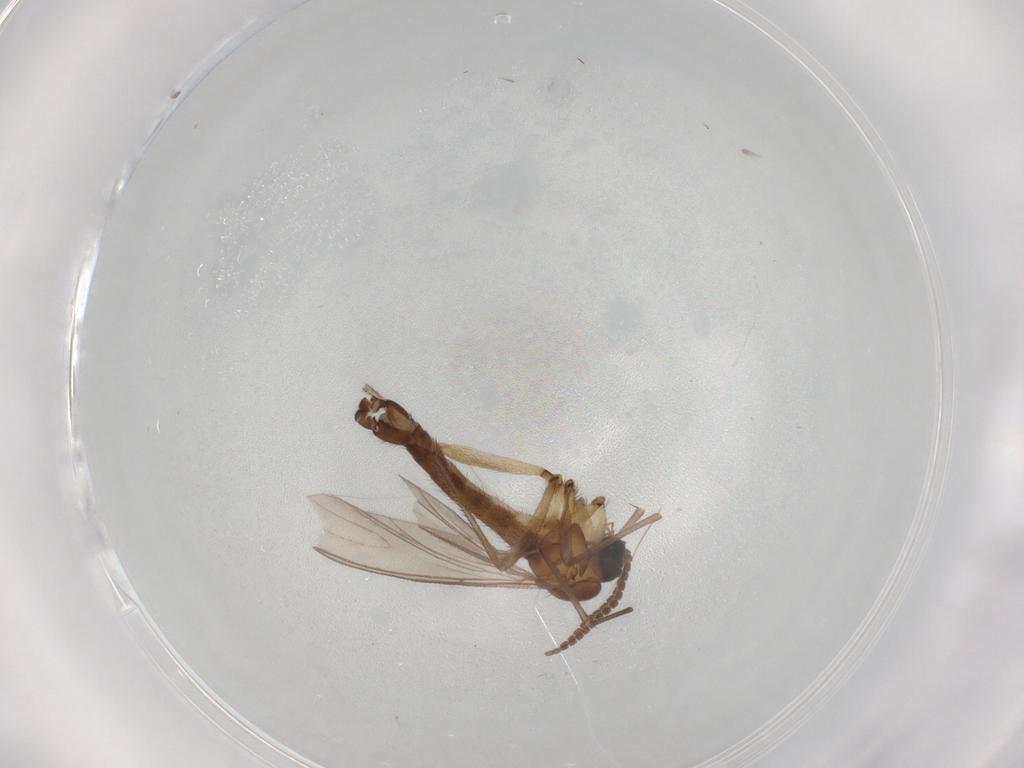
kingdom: Animalia
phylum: Arthropoda
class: Insecta
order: Diptera
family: Sciaridae
